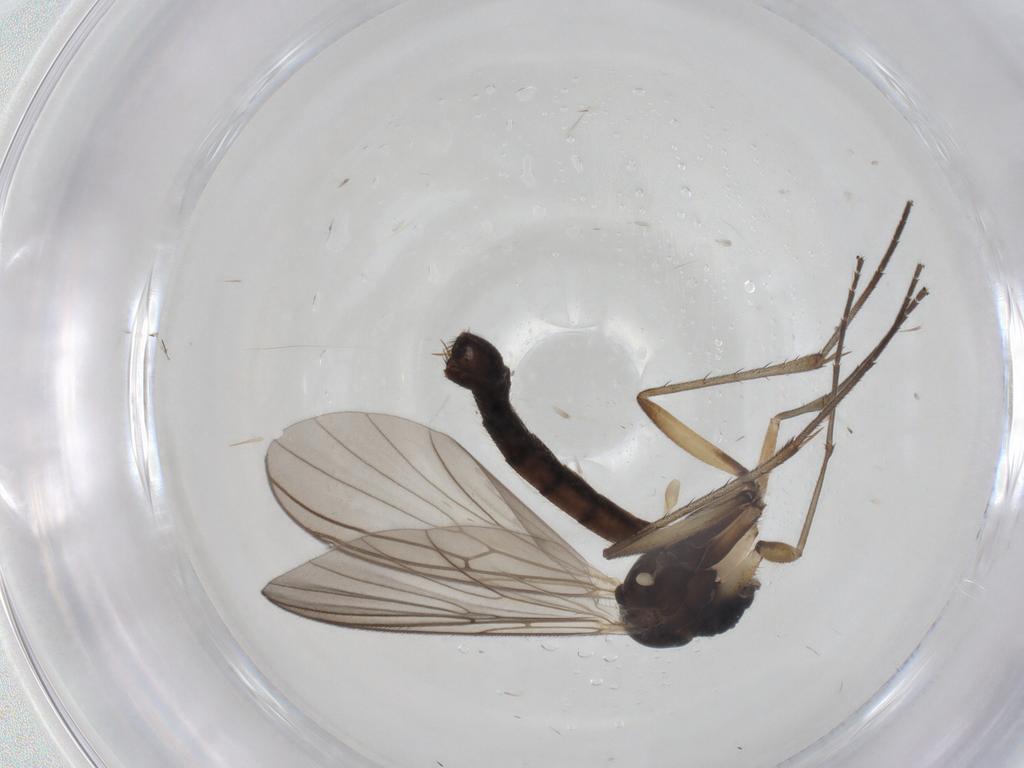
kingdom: Animalia
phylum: Arthropoda
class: Insecta
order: Diptera
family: Mycetophilidae
